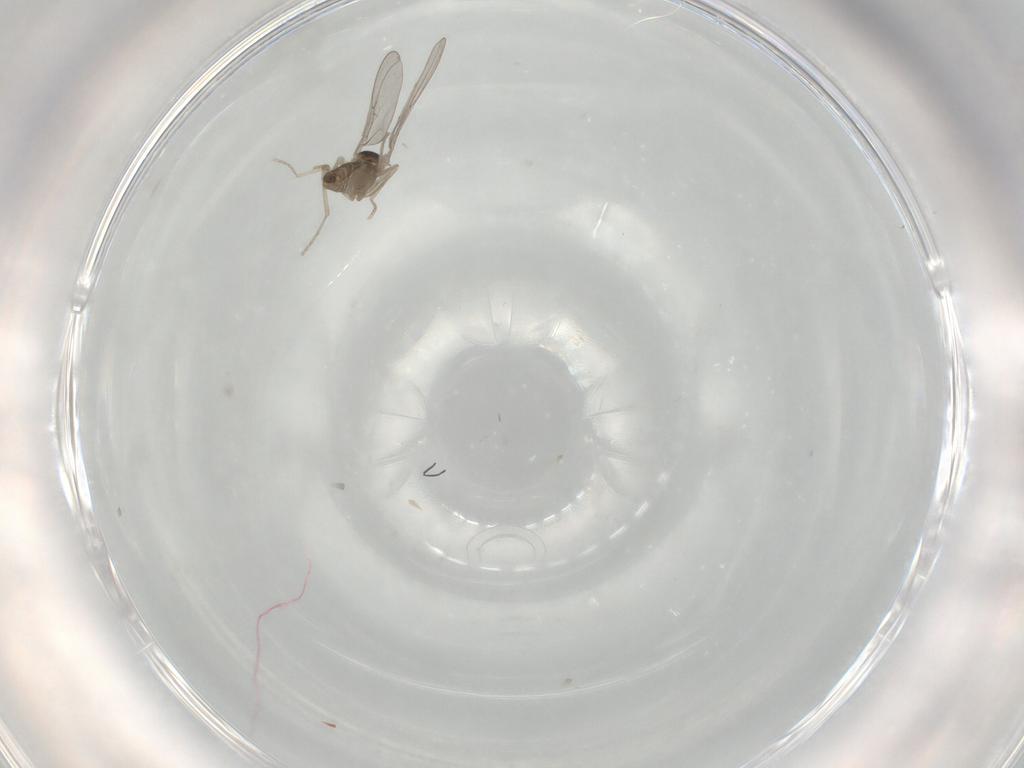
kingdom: Animalia
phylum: Arthropoda
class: Insecta
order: Diptera
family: Cecidomyiidae
